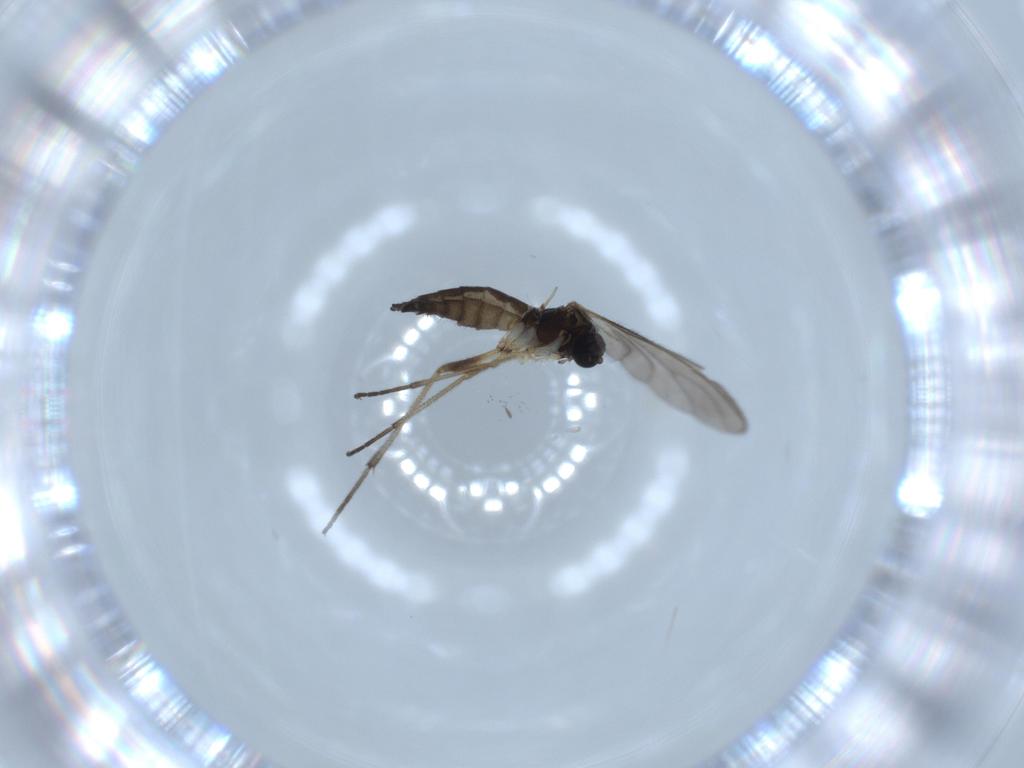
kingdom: Animalia
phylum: Arthropoda
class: Insecta
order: Diptera
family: Sciaridae
